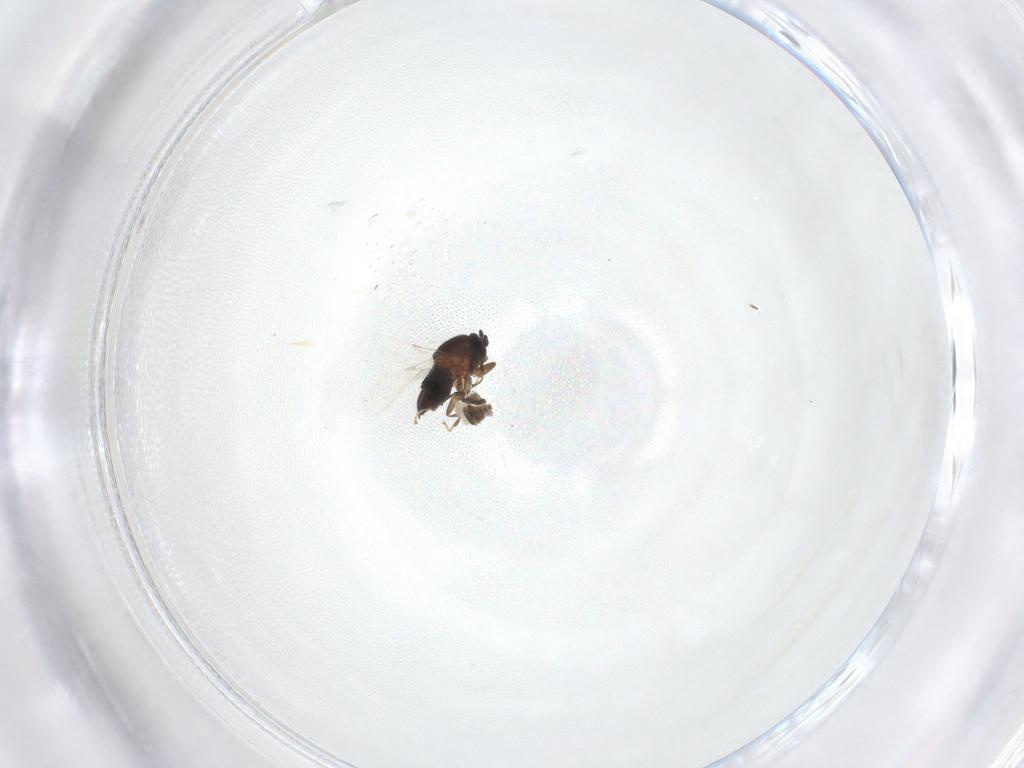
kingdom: Animalia
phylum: Arthropoda
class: Insecta
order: Diptera
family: Scatopsidae
